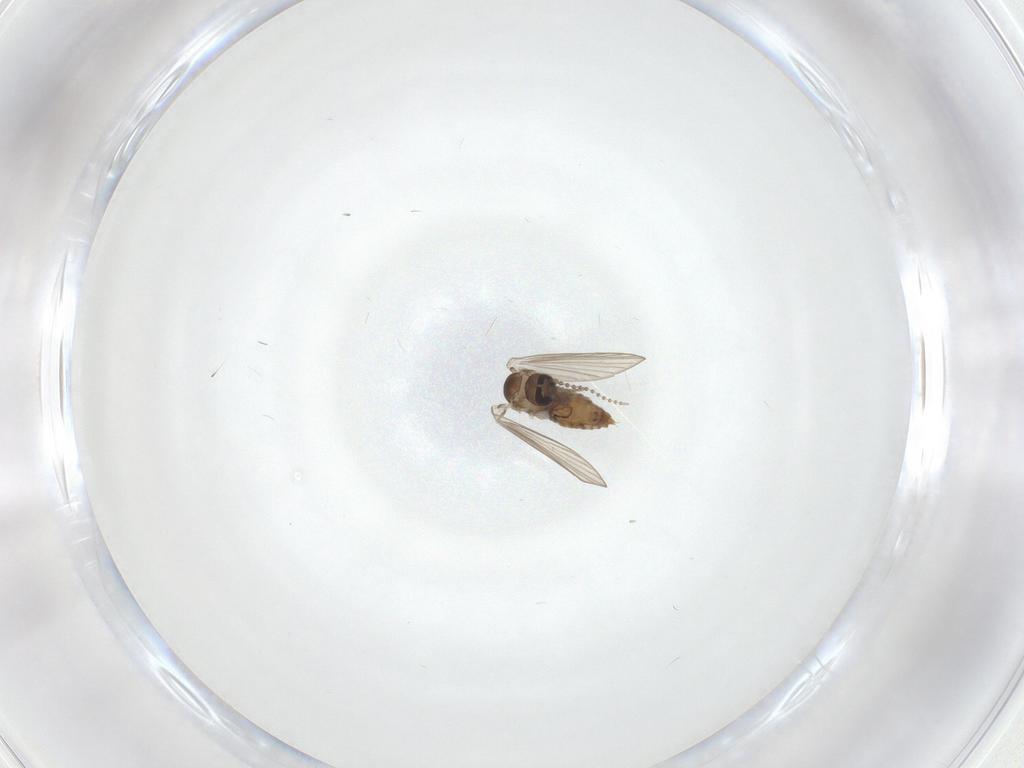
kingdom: Animalia
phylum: Arthropoda
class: Insecta
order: Diptera
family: Psychodidae
